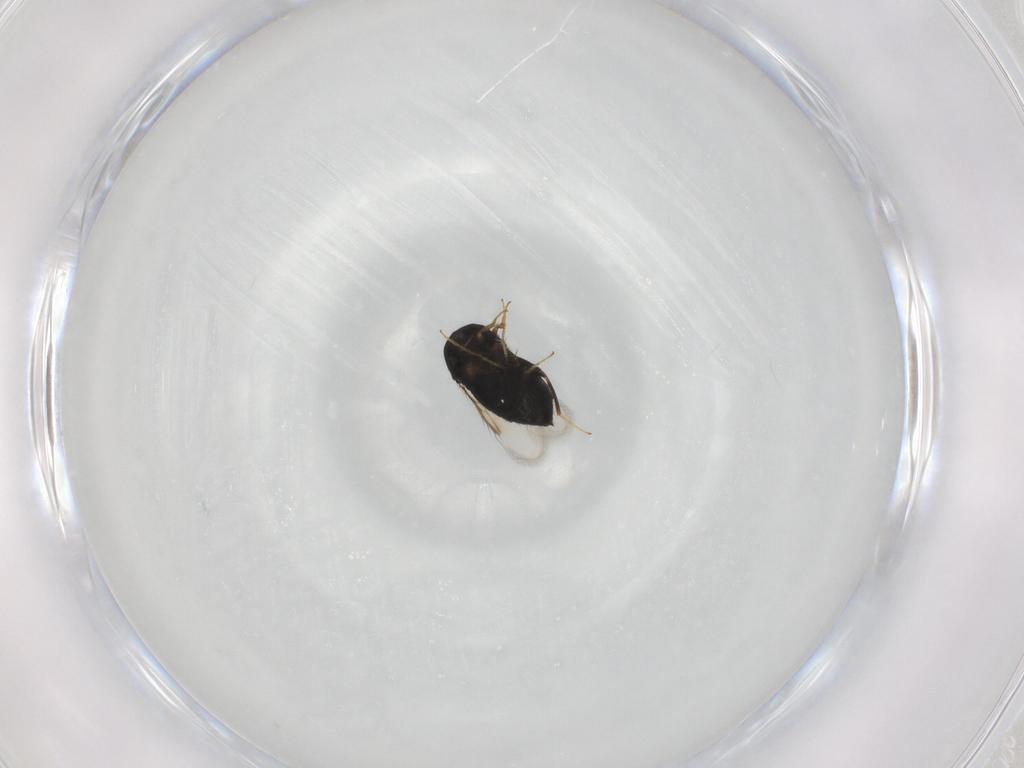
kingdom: Animalia
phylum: Arthropoda
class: Insecta
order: Hymenoptera
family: Signiphoridae
